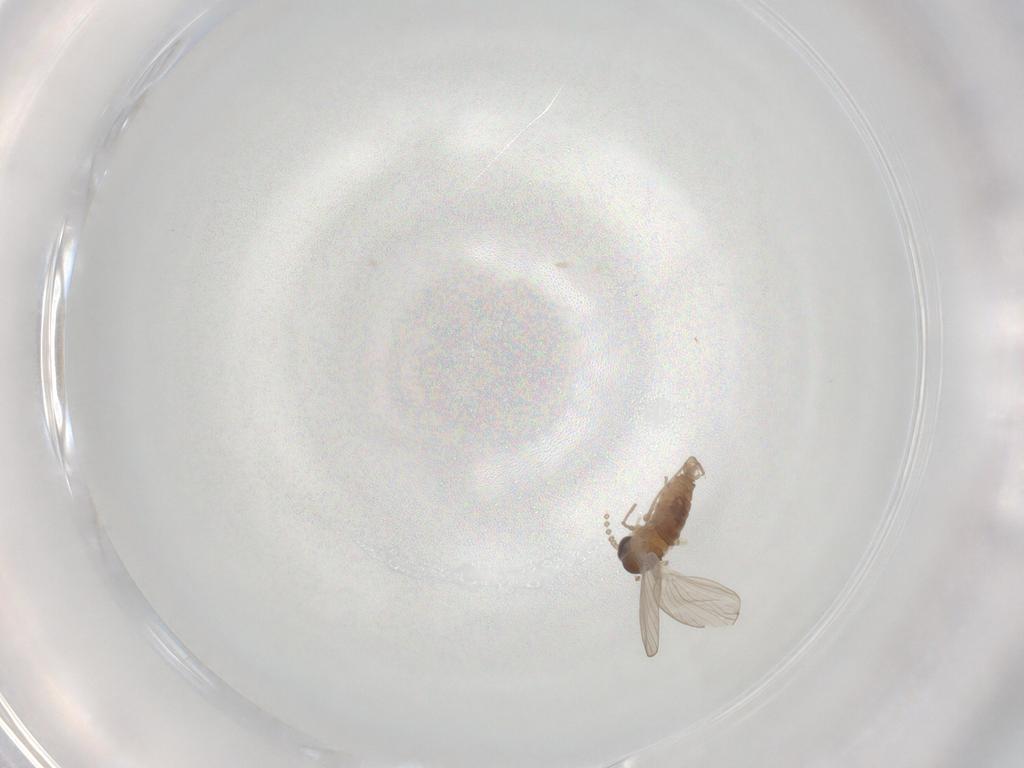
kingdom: Animalia
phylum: Arthropoda
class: Insecta
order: Diptera
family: Psychodidae
